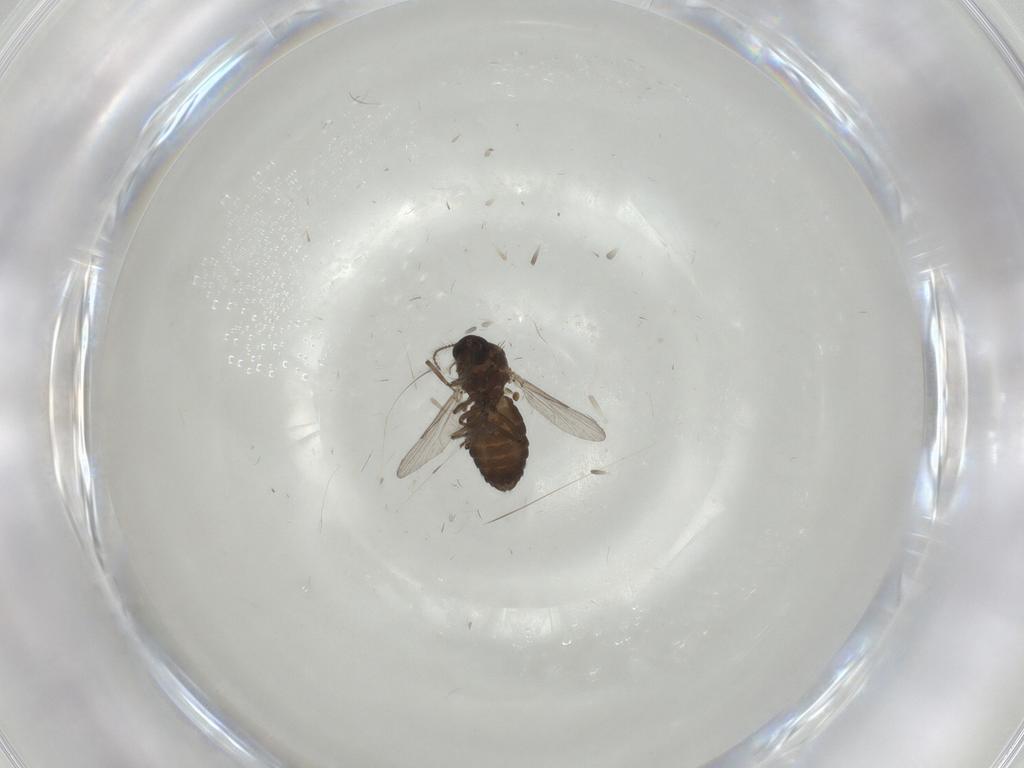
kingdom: Animalia
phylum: Arthropoda
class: Insecta
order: Diptera
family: Ceratopogonidae
